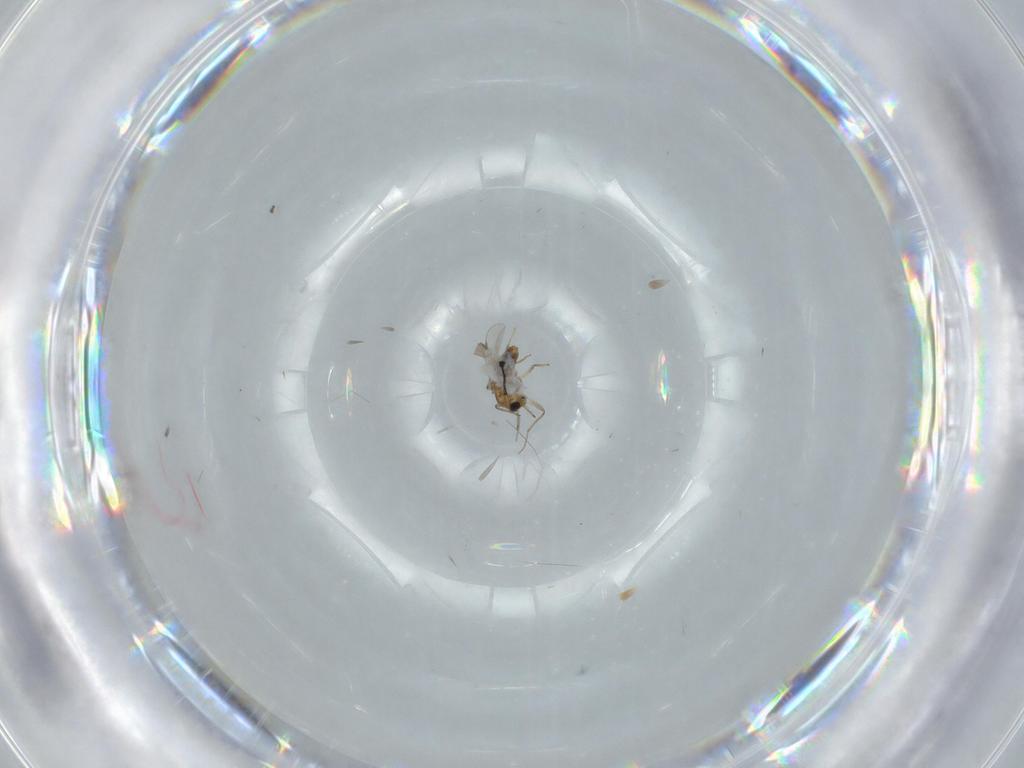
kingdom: Animalia
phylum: Arthropoda
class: Insecta
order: Diptera
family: Chironomidae
